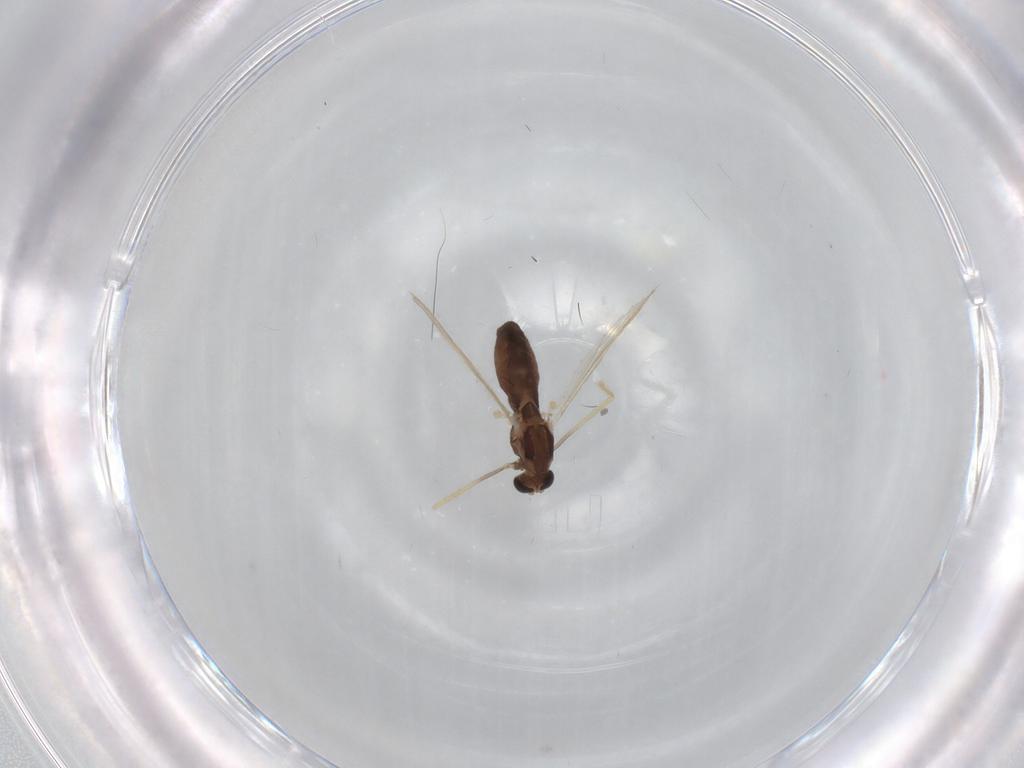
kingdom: Animalia
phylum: Arthropoda
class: Insecta
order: Diptera
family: Chironomidae
